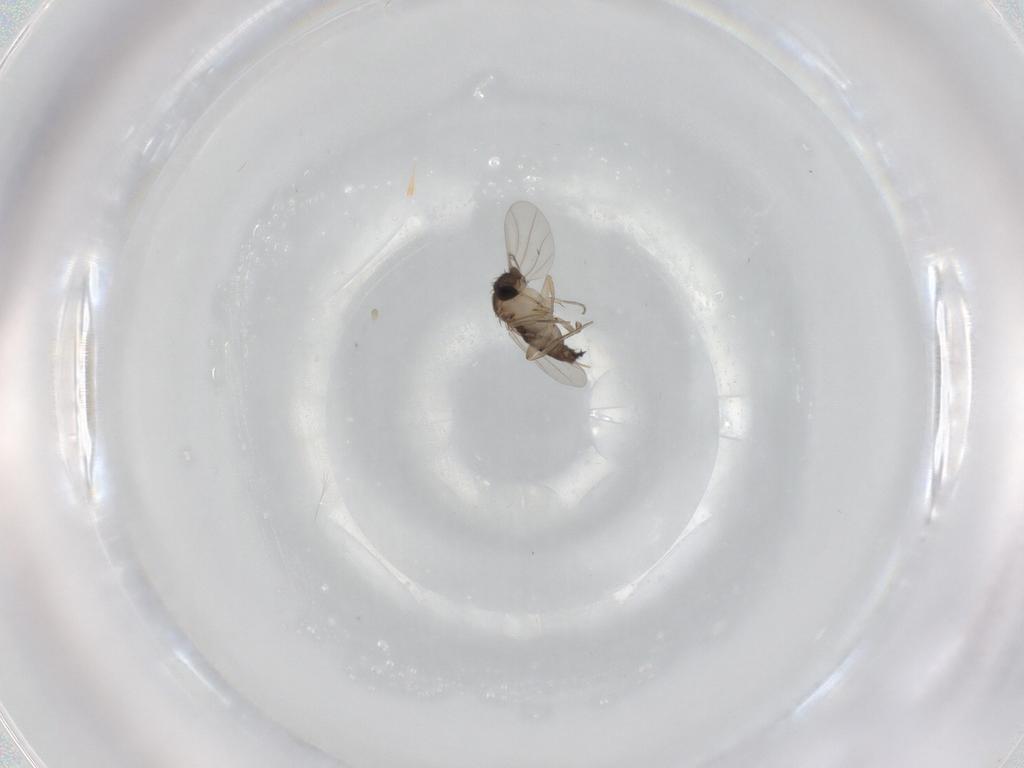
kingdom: Animalia
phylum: Arthropoda
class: Insecta
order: Diptera
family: Phoridae
